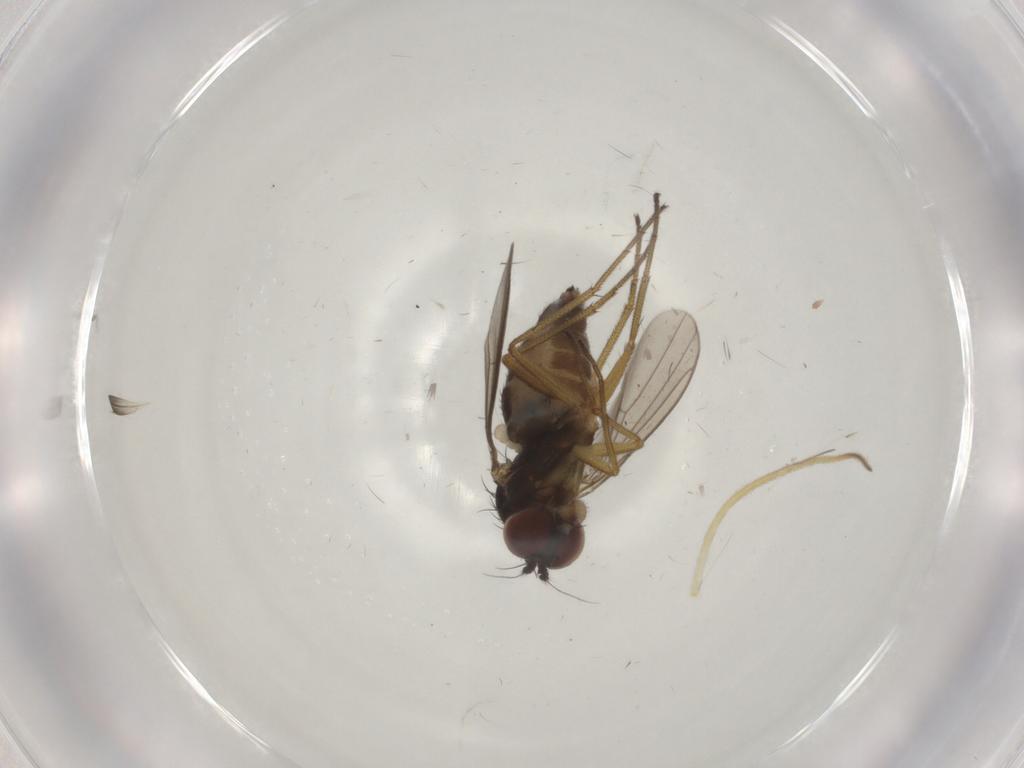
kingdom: Animalia
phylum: Arthropoda
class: Insecta
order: Diptera
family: Dolichopodidae
